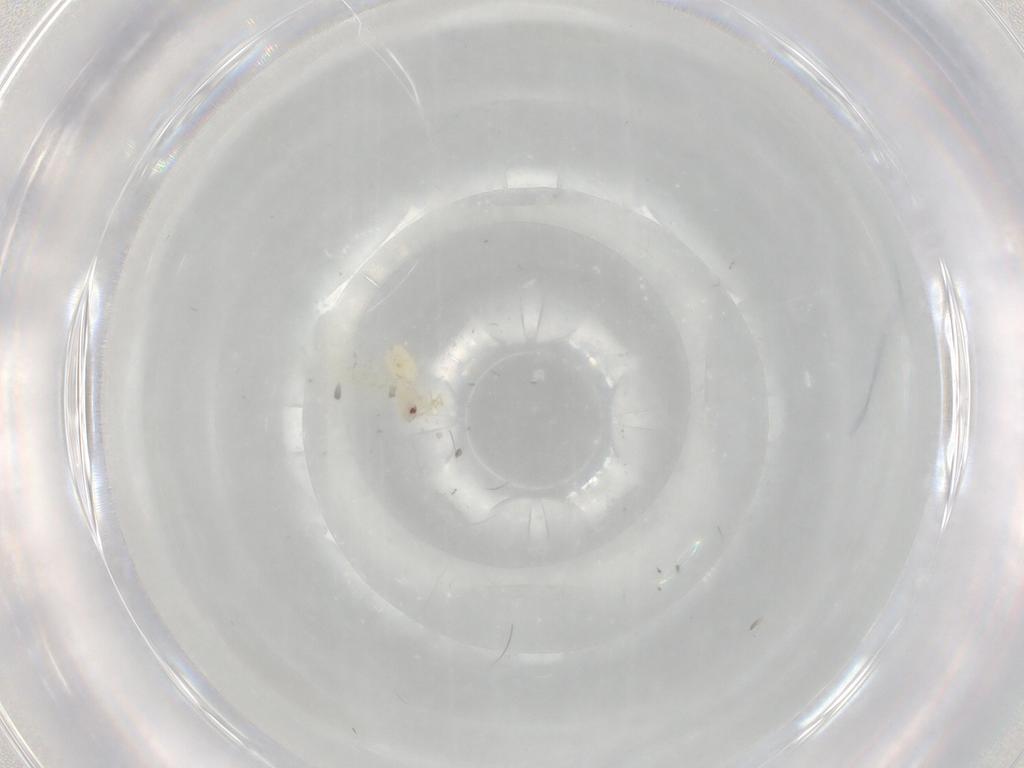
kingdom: Animalia
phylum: Arthropoda
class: Insecta
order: Hemiptera
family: Aleyrodidae
